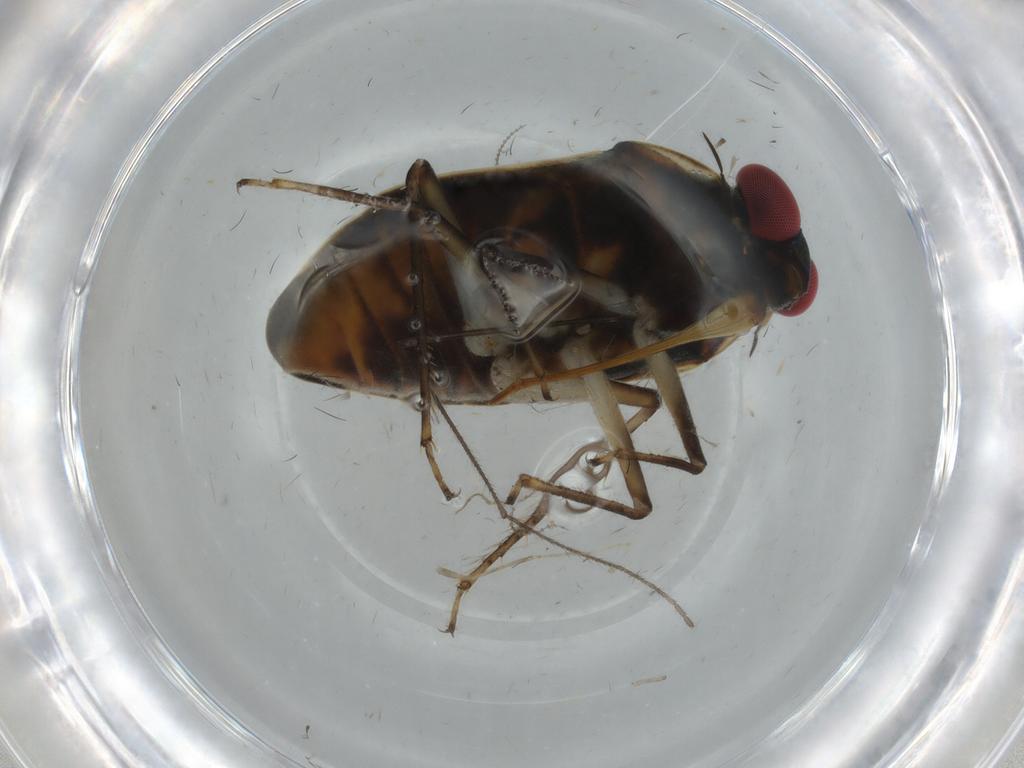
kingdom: Animalia
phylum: Arthropoda
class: Insecta
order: Hemiptera
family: Ochteridae
